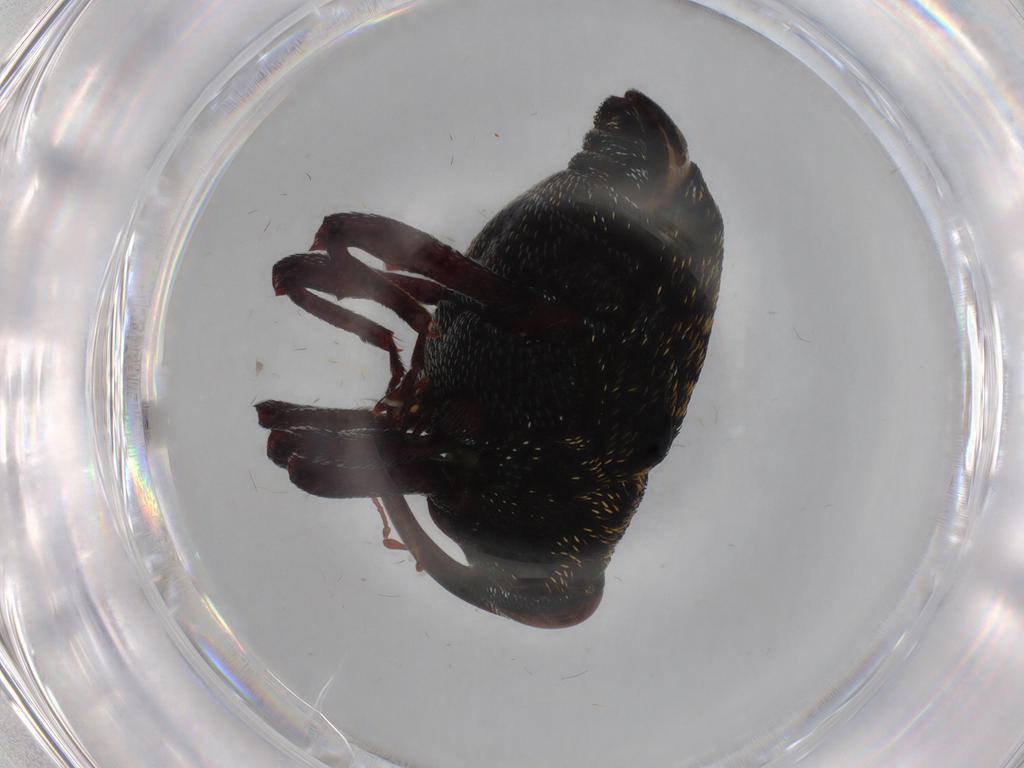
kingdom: Animalia
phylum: Arthropoda
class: Insecta
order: Coleoptera
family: Curculionidae
